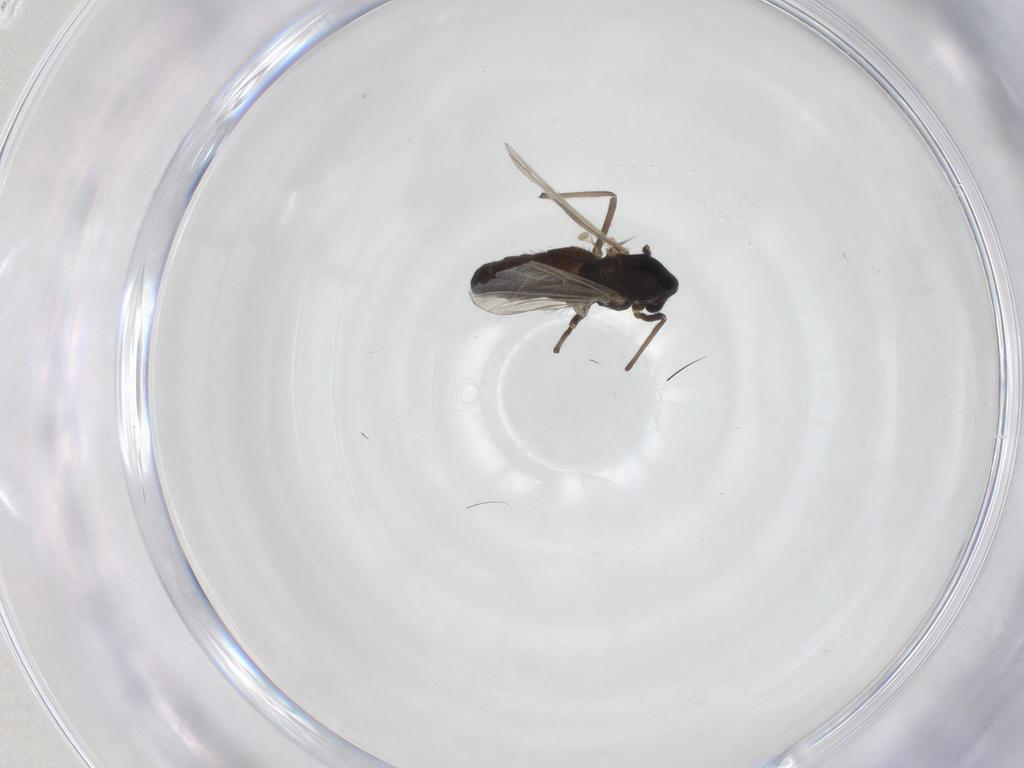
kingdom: Animalia
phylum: Arthropoda
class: Insecta
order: Diptera
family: Chironomidae
